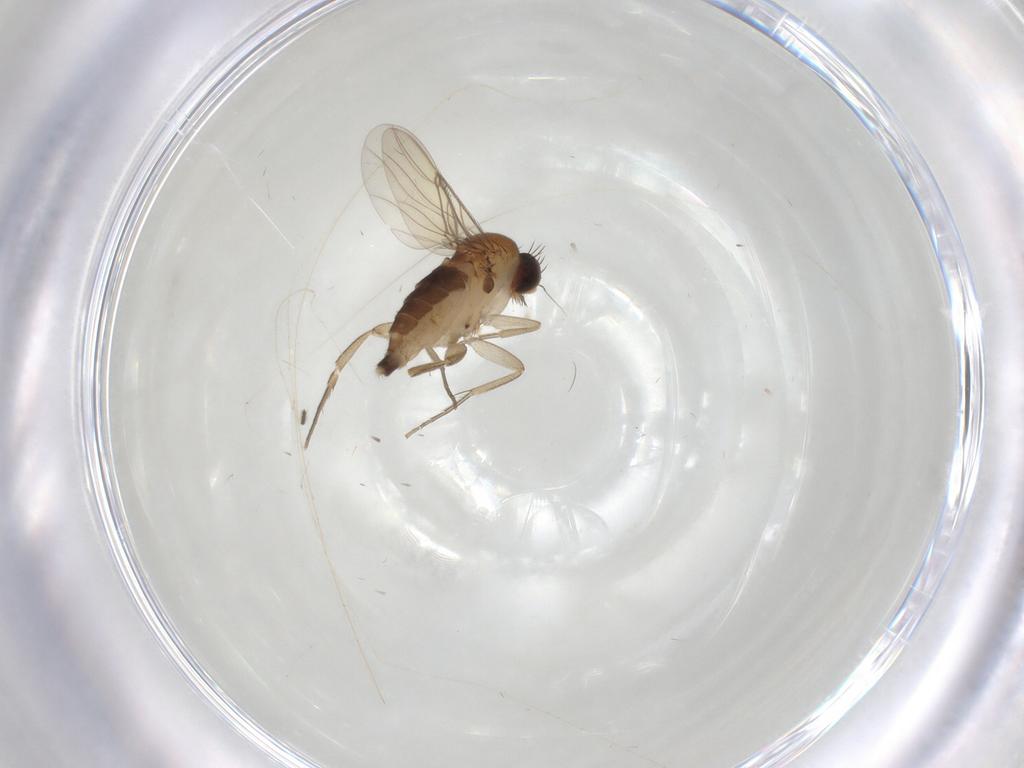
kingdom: Animalia
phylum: Arthropoda
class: Insecta
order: Diptera
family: Phoridae
